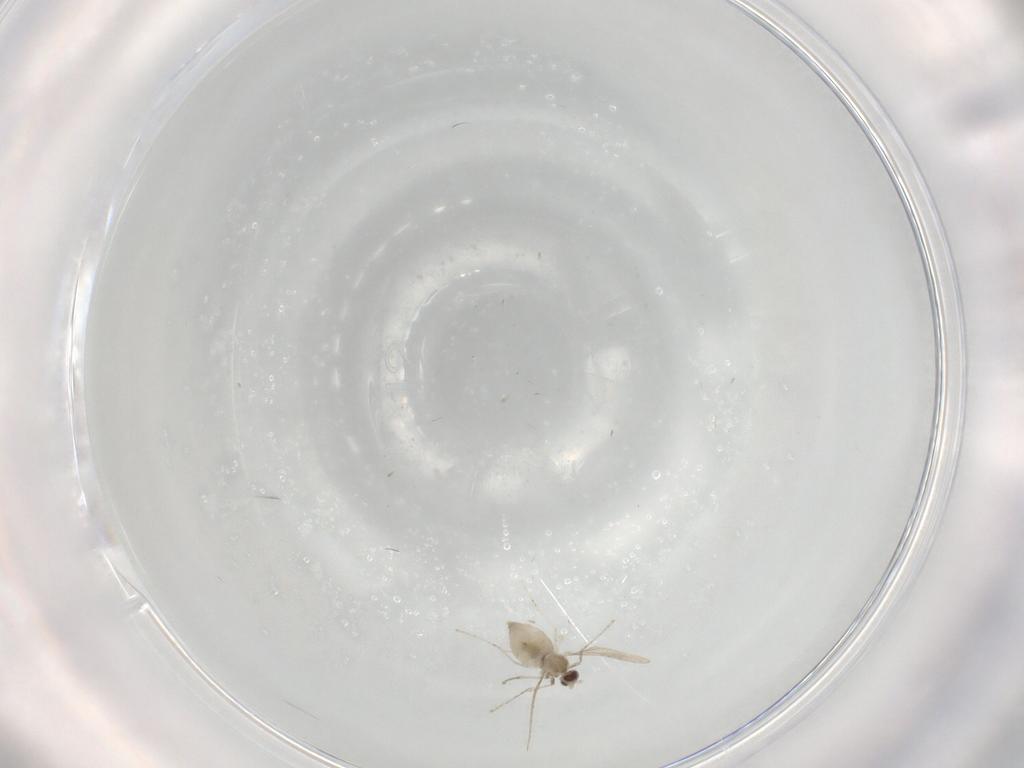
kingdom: Animalia
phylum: Arthropoda
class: Insecta
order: Diptera
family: Cecidomyiidae
